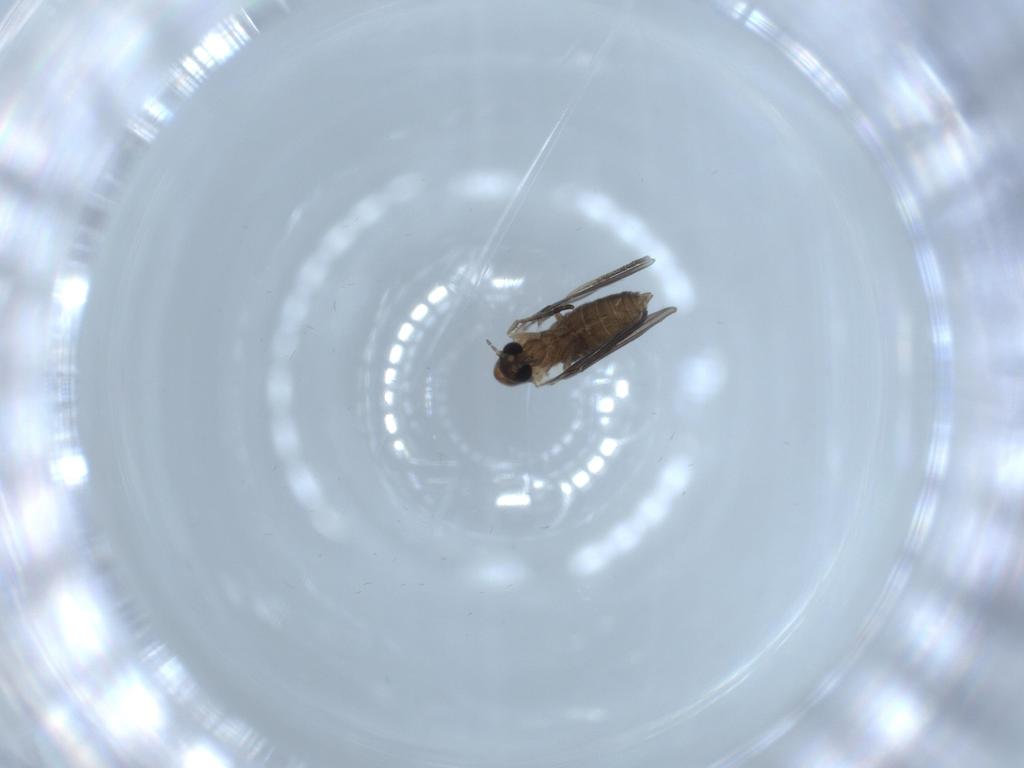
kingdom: Animalia
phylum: Arthropoda
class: Insecta
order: Diptera
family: Psychodidae
